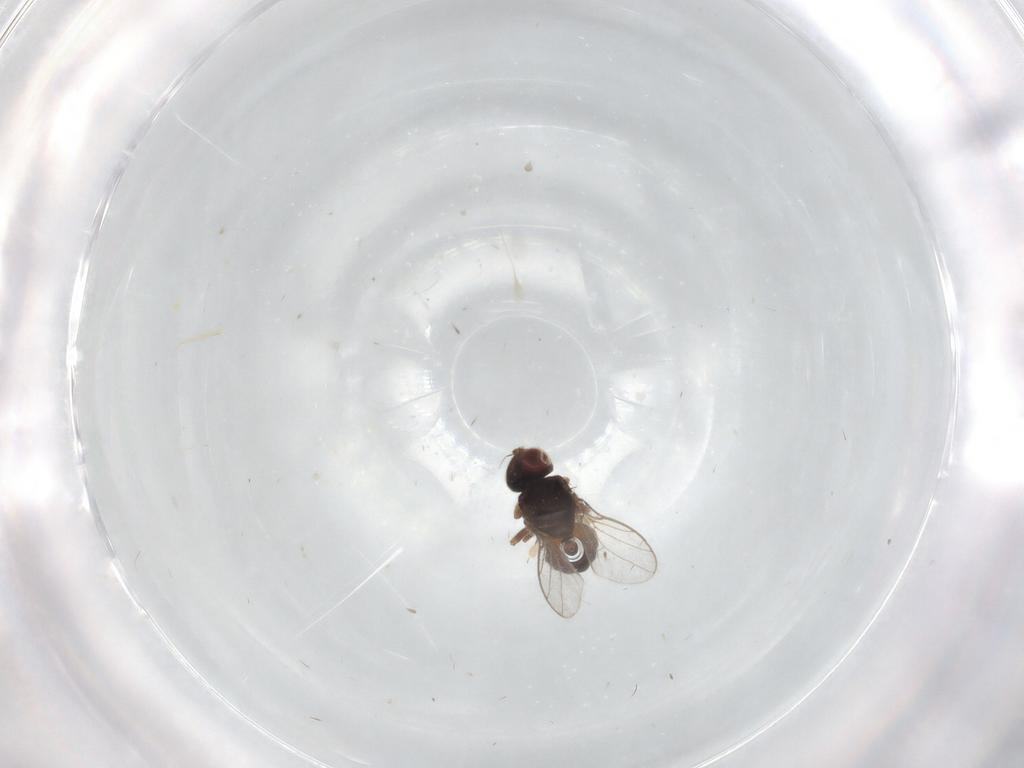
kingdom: Animalia
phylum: Arthropoda
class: Insecta
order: Diptera
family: Chloropidae
